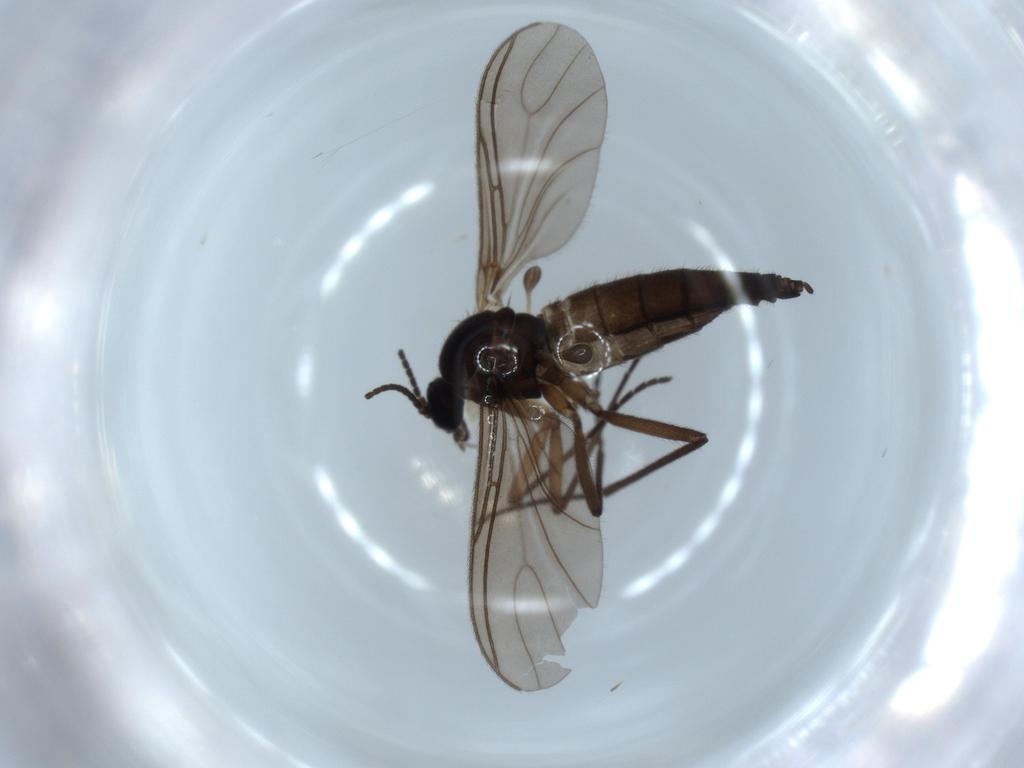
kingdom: Animalia
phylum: Arthropoda
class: Insecta
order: Diptera
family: Sciaridae
